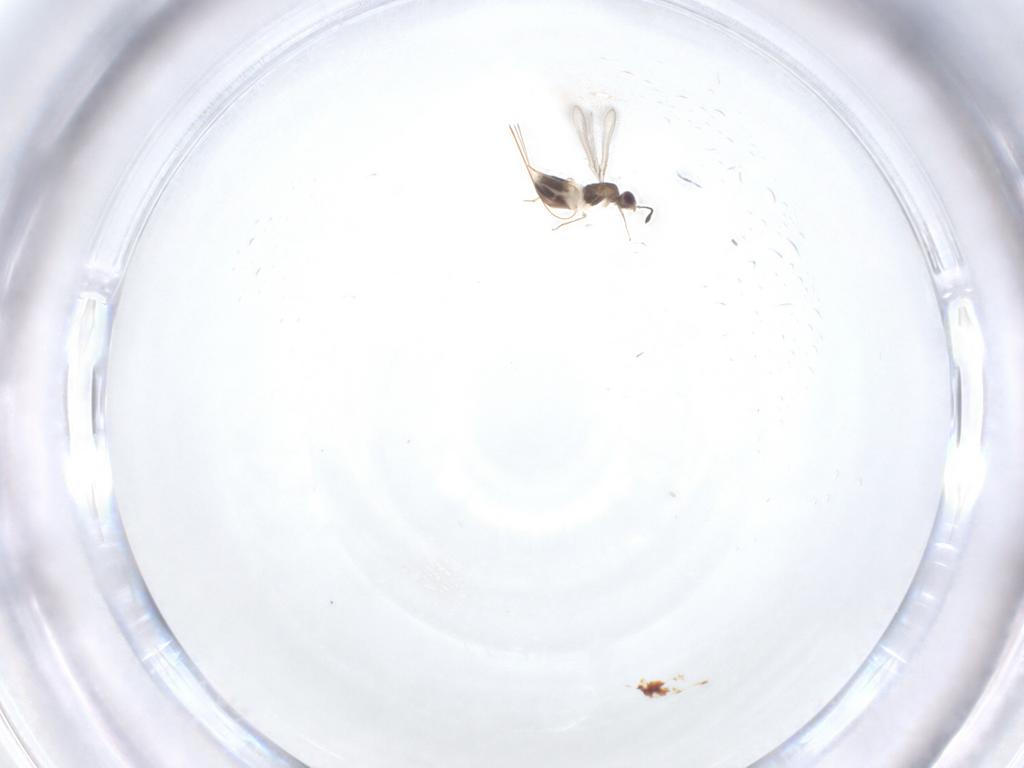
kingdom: Animalia
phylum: Arthropoda
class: Insecta
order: Hymenoptera
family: Mymaridae
